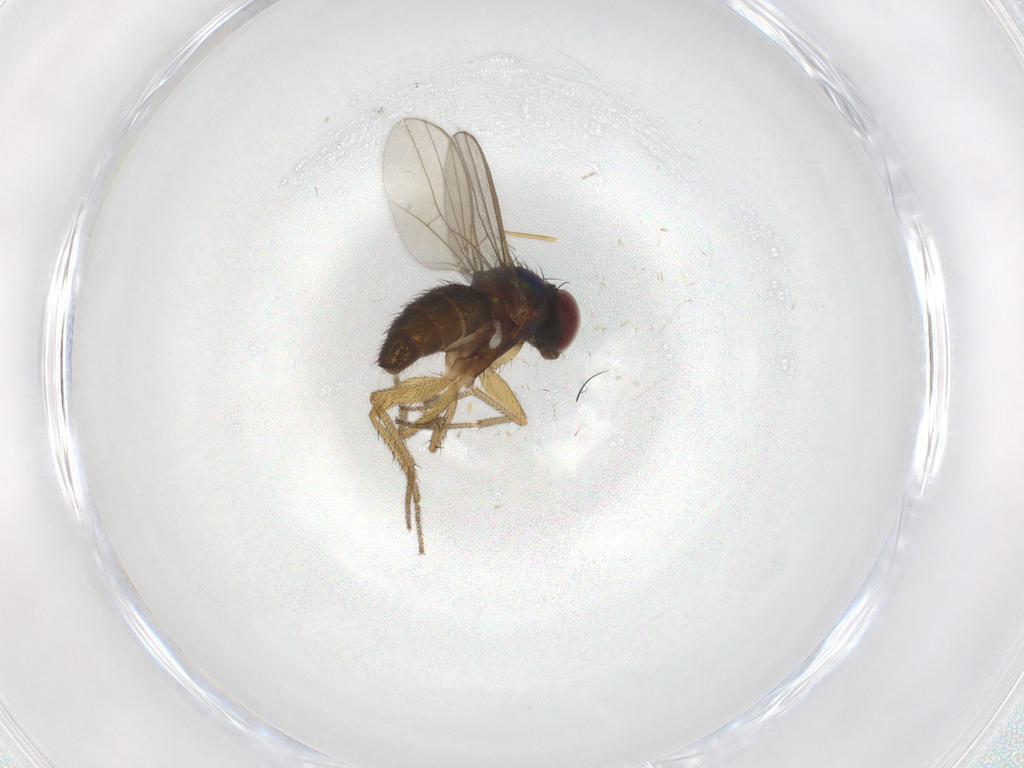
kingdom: Animalia
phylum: Arthropoda
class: Insecta
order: Diptera
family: Dolichopodidae
